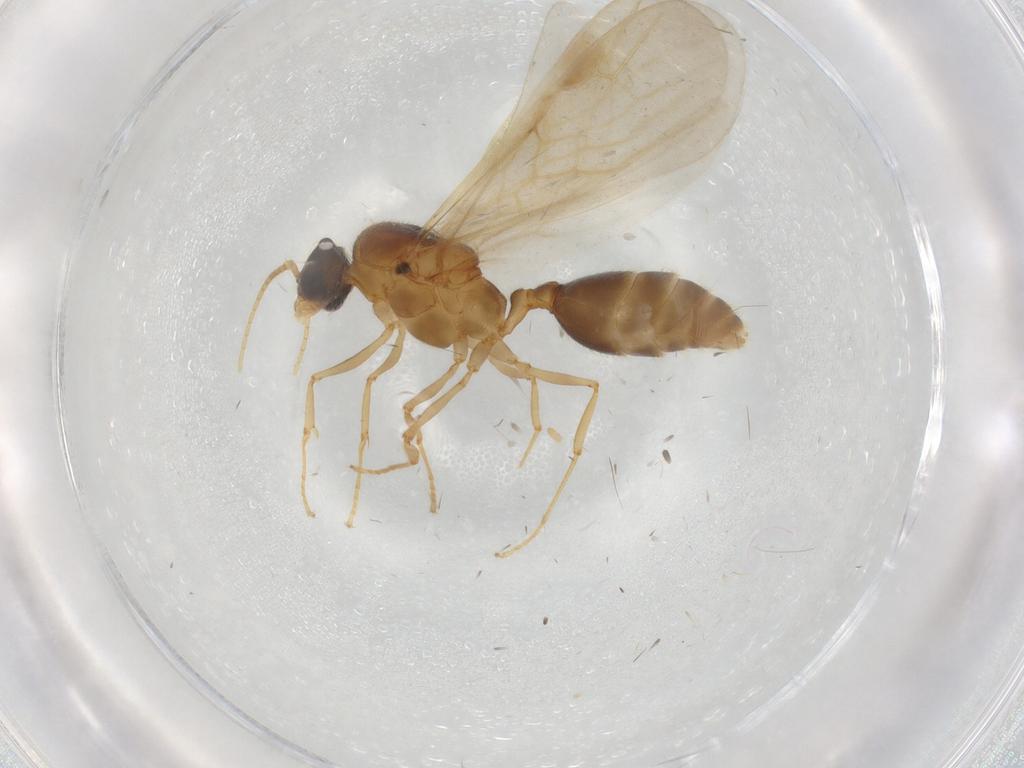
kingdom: Animalia
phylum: Arthropoda
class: Insecta
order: Hymenoptera
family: Formicidae
